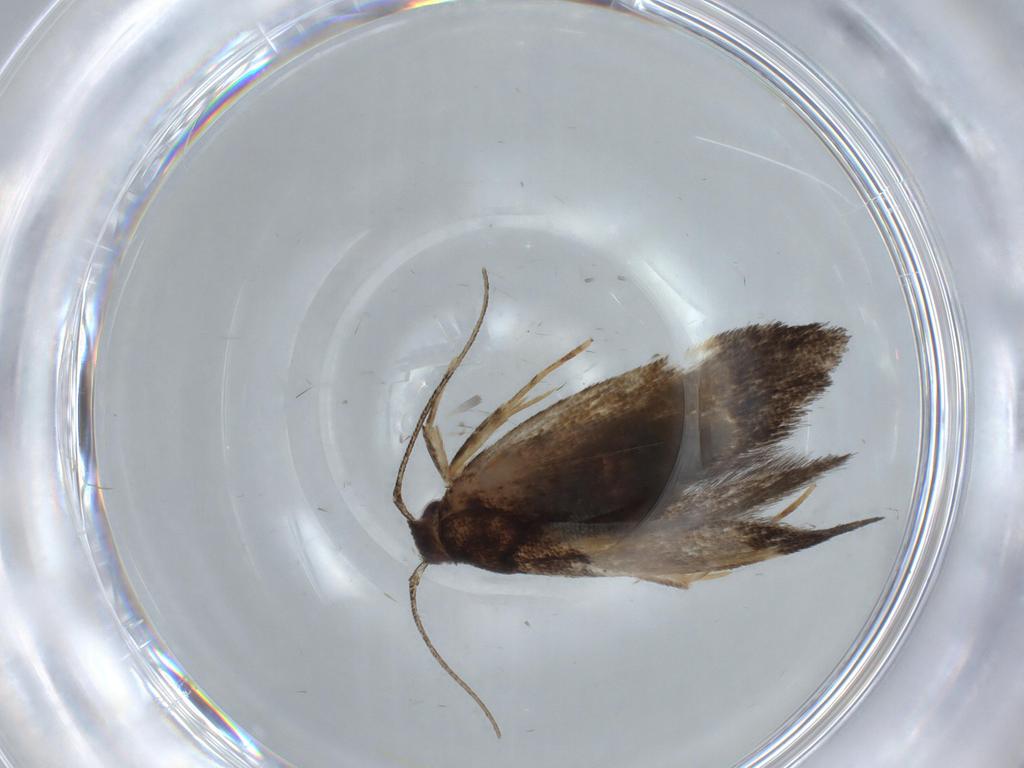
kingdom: Animalia
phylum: Arthropoda
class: Insecta
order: Lepidoptera
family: Cosmopterigidae
